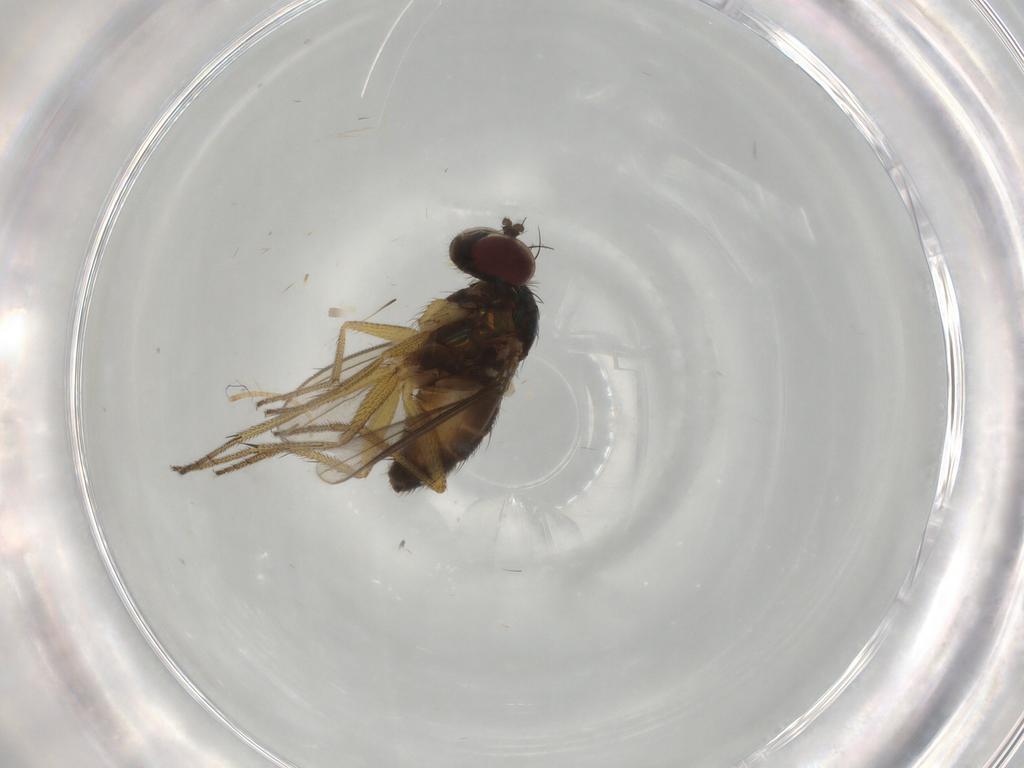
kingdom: Animalia
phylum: Arthropoda
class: Insecta
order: Diptera
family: Dolichopodidae
